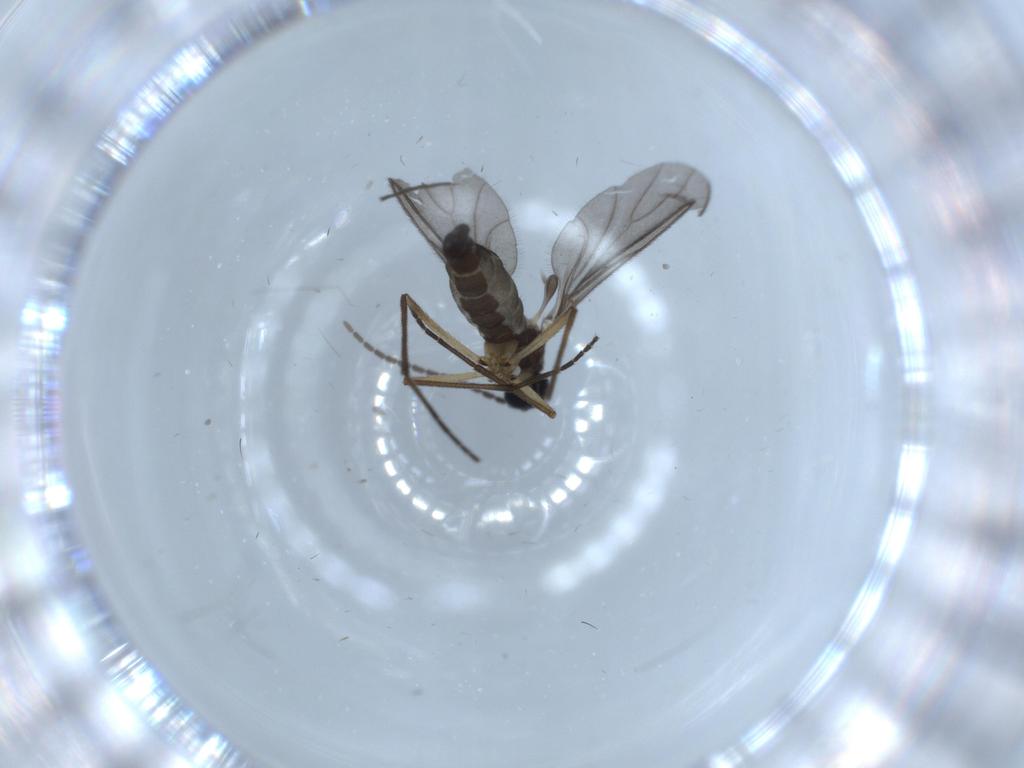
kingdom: Animalia
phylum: Arthropoda
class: Insecta
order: Diptera
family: Sciaridae
